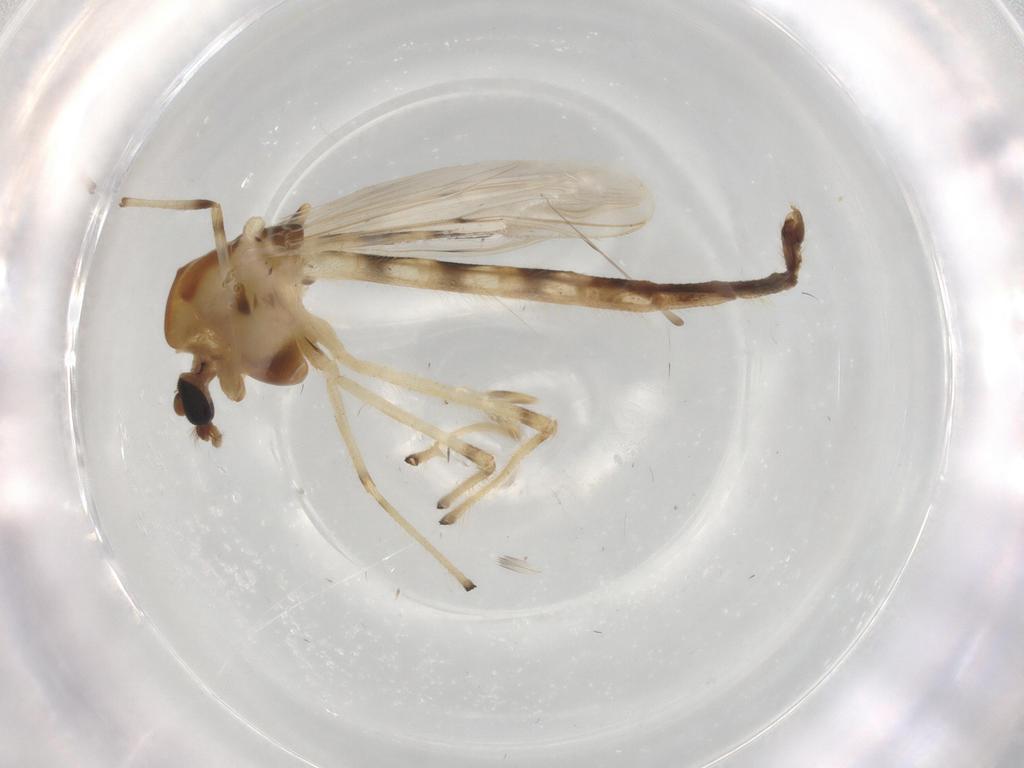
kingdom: Animalia
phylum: Arthropoda
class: Insecta
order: Diptera
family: Chironomidae
